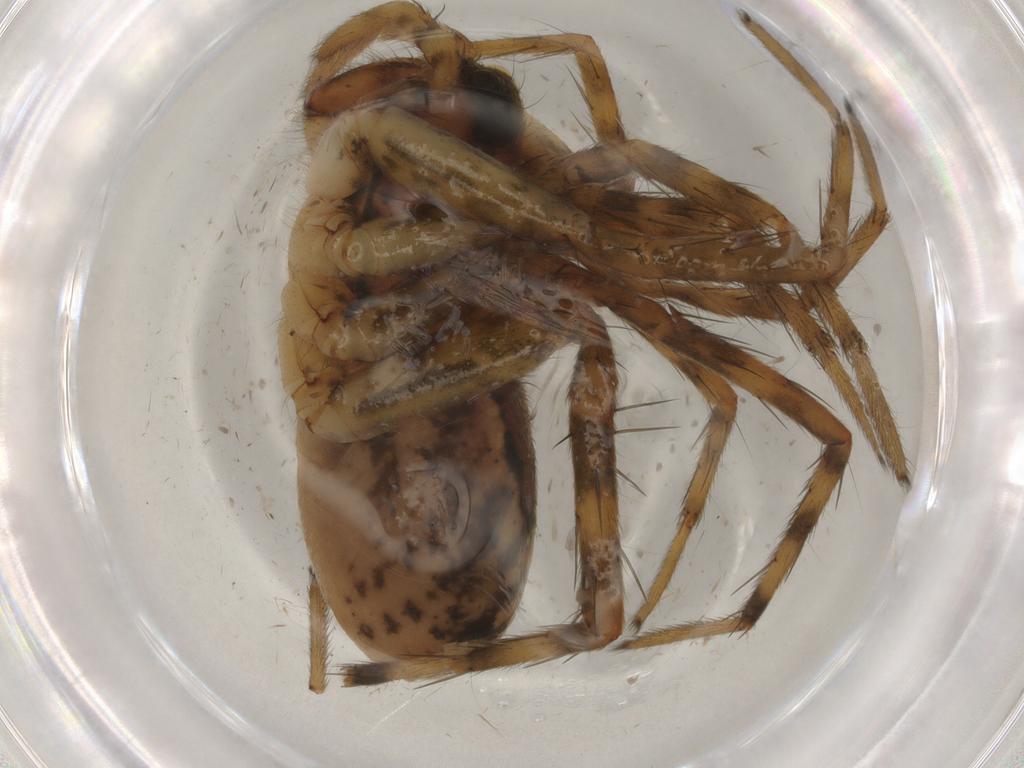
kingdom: Animalia
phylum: Arthropoda
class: Arachnida
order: Araneae
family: Lycosidae
